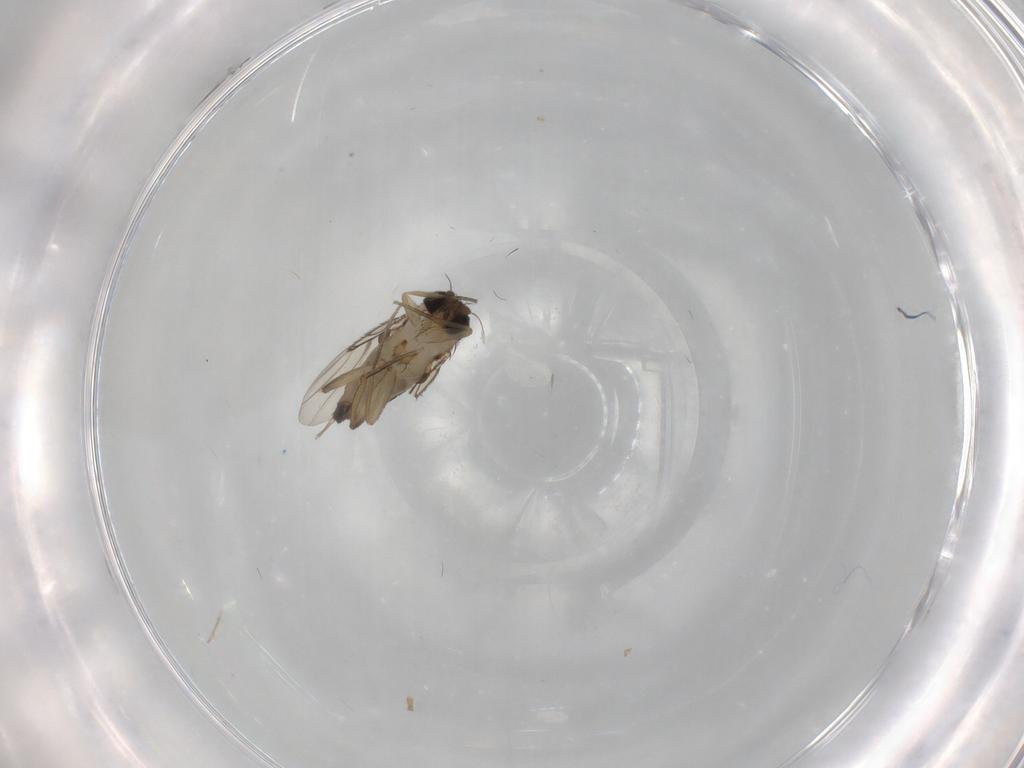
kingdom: Animalia
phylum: Arthropoda
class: Insecta
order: Diptera
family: Phoridae
